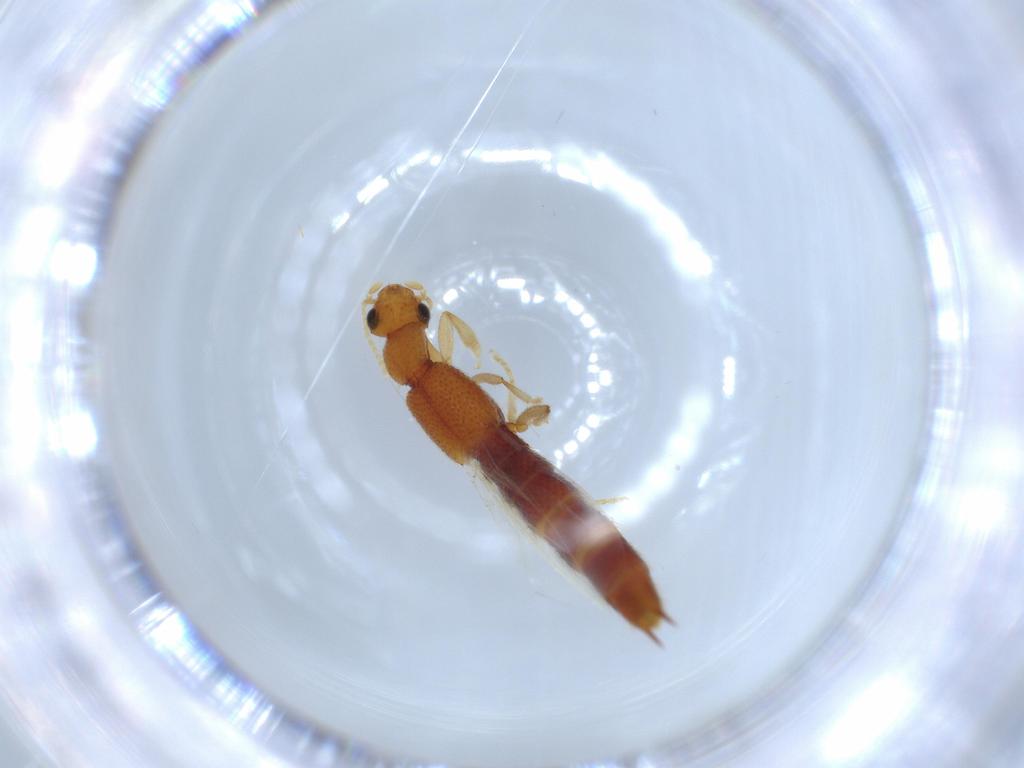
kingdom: Animalia
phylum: Arthropoda
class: Insecta
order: Coleoptera
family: Staphylinidae
